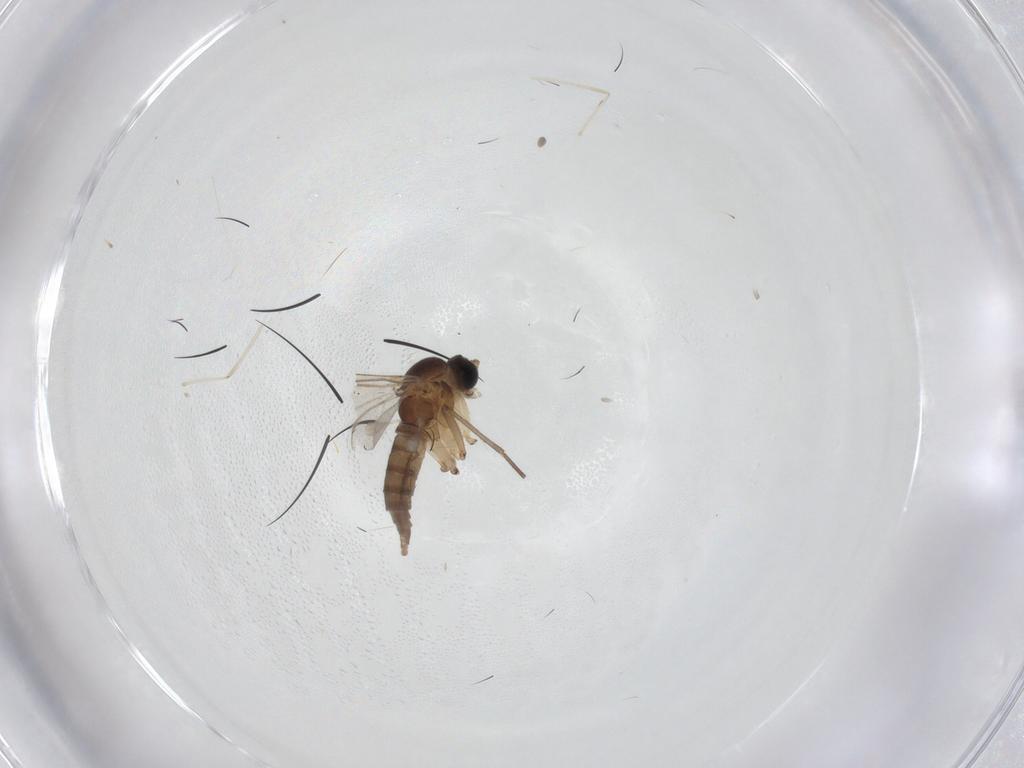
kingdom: Animalia
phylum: Arthropoda
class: Insecta
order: Diptera
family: Sciaridae
